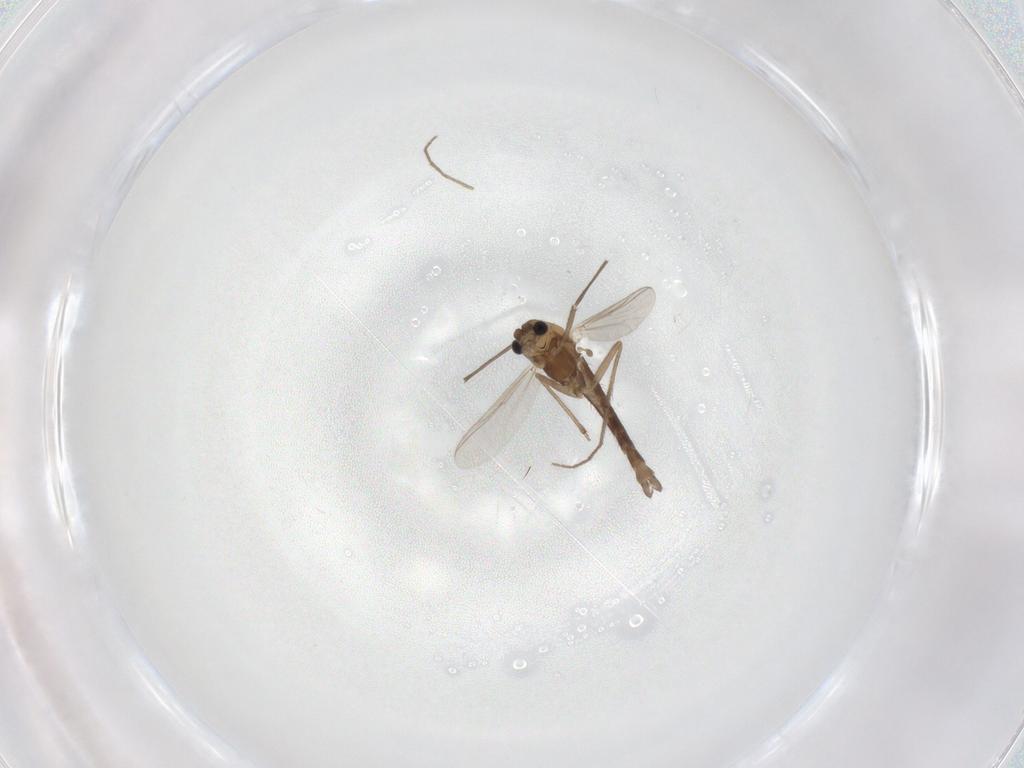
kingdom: Animalia
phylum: Arthropoda
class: Insecta
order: Diptera
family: Chironomidae
